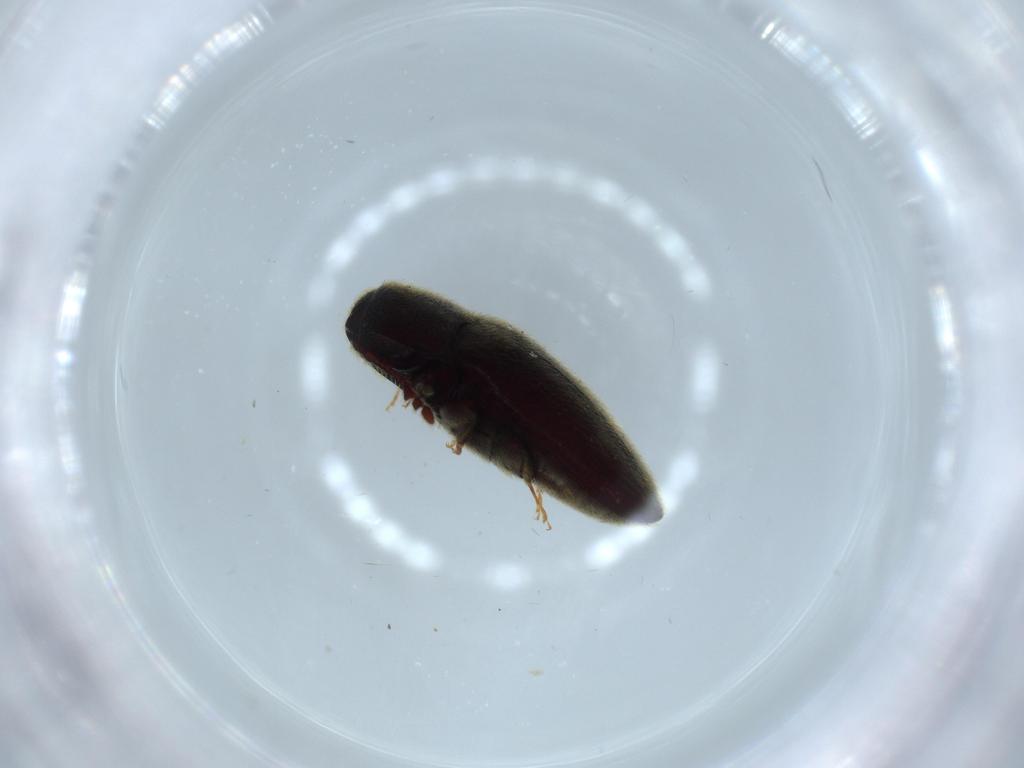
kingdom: Animalia
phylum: Arthropoda
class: Insecta
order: Coleoptera
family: Throscidae
